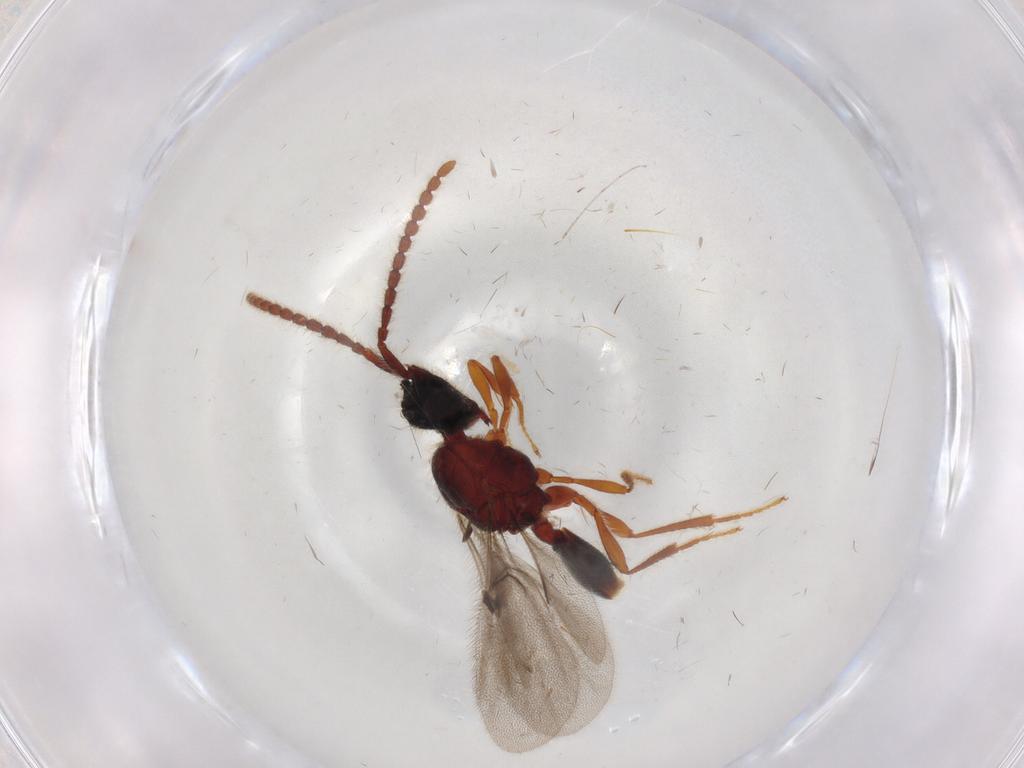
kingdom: Animalia
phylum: Arthropoda
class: Insecta
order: Hymenoptera
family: Diapriidae
